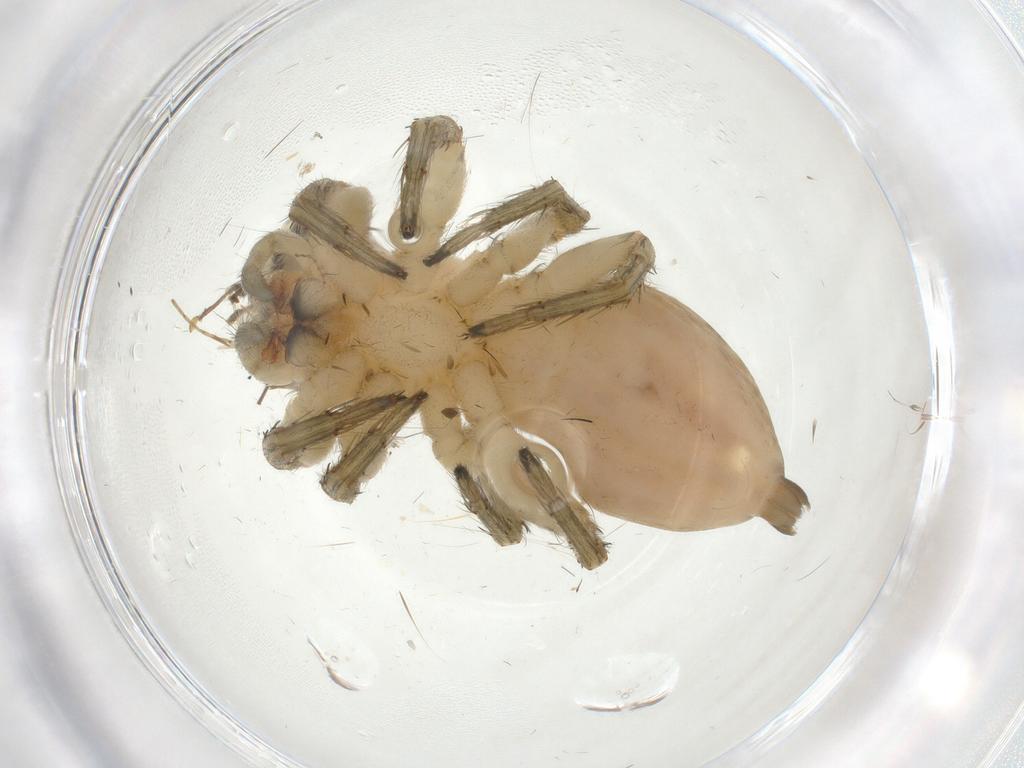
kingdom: Animalia
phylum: Arthropoda
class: Arachnida
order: Araneae
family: Salticidae
